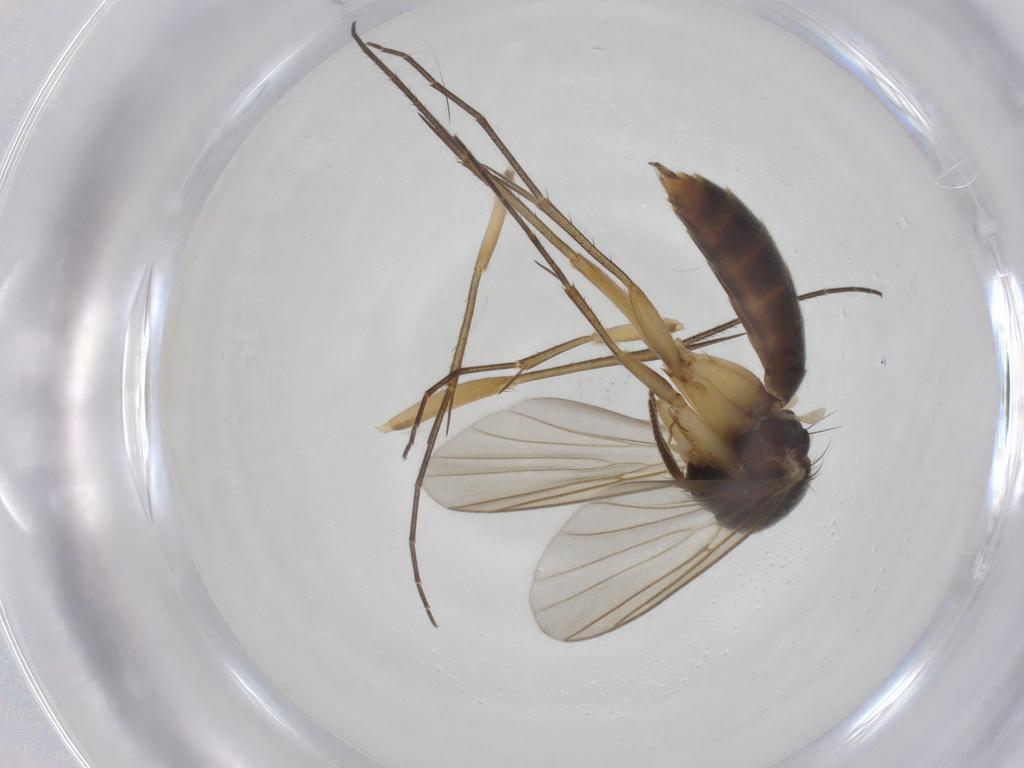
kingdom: Animalia
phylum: Arthropoda
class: Insecta
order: Diptera
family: Mycetophilidae
